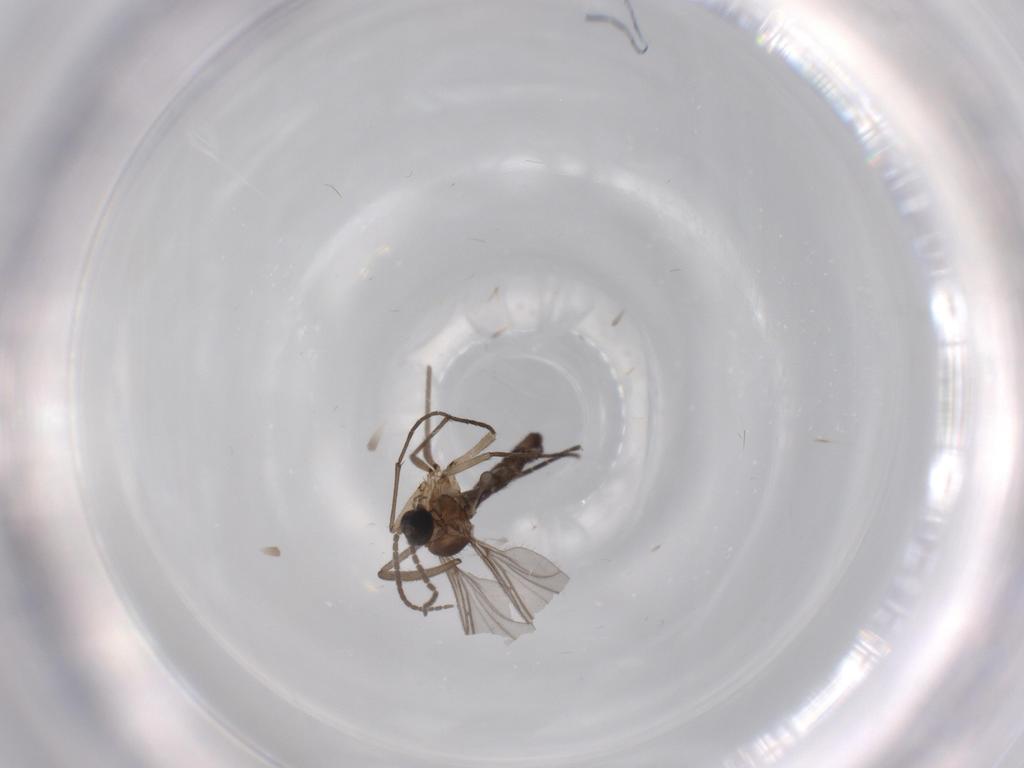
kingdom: Animalia
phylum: Arthropoda
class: Insecta
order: Diptera
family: Sciaridae
